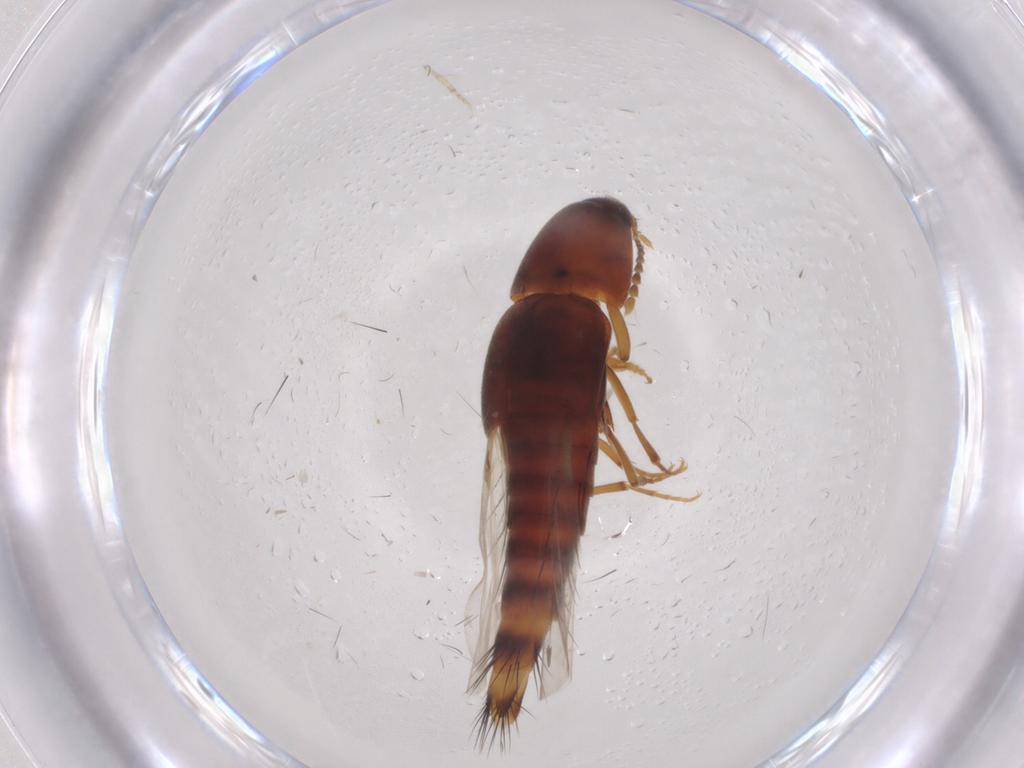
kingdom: Animalia
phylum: Arthropoda
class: Insecta
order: Coleoptera
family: Staphylinidae
